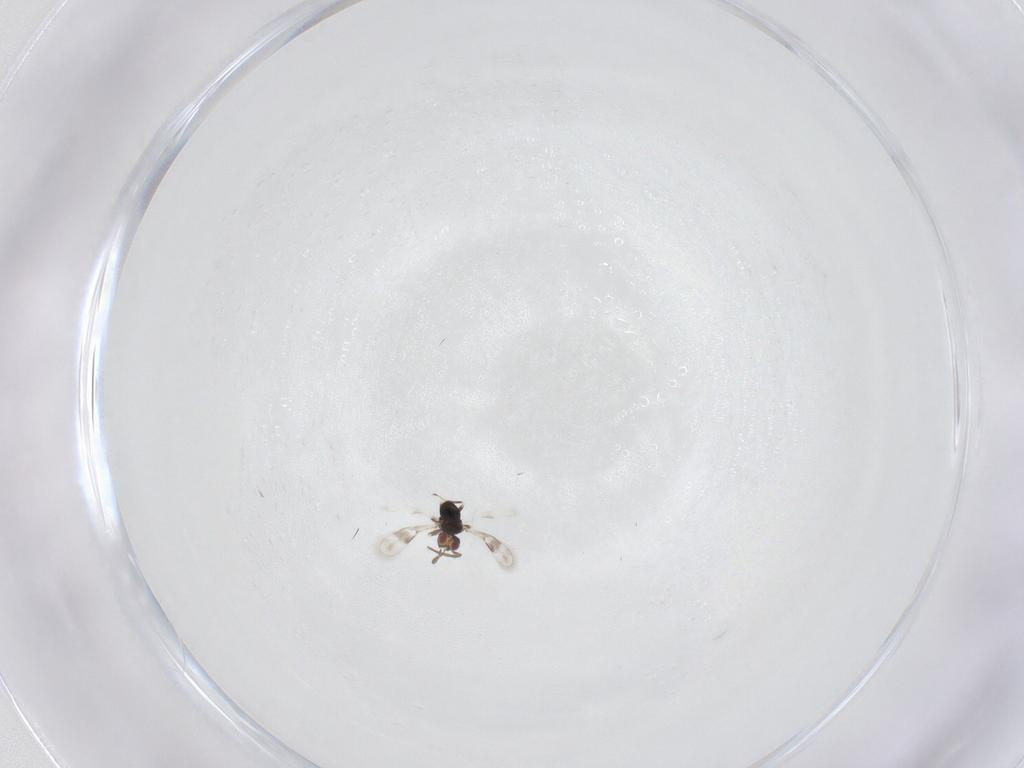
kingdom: Animalia
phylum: Arthropoda
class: Insecta
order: Hymenoptera
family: Azotidae
